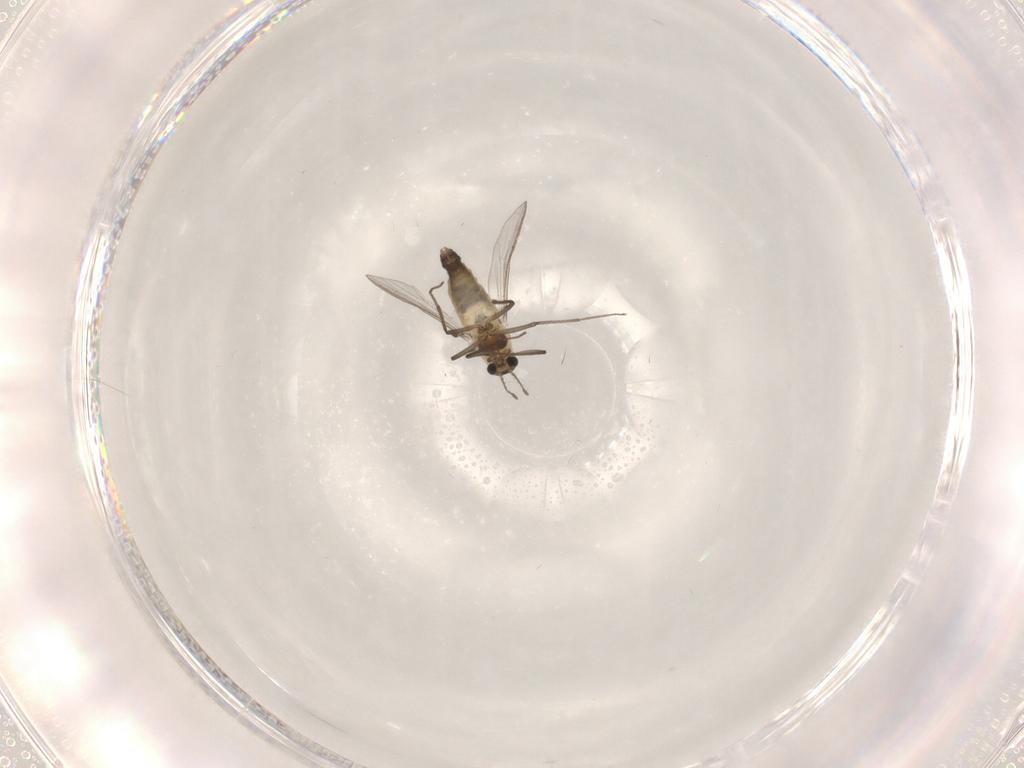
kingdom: Animalia
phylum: Arthropoda
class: Insecta
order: Diptera
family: Chironomidae
